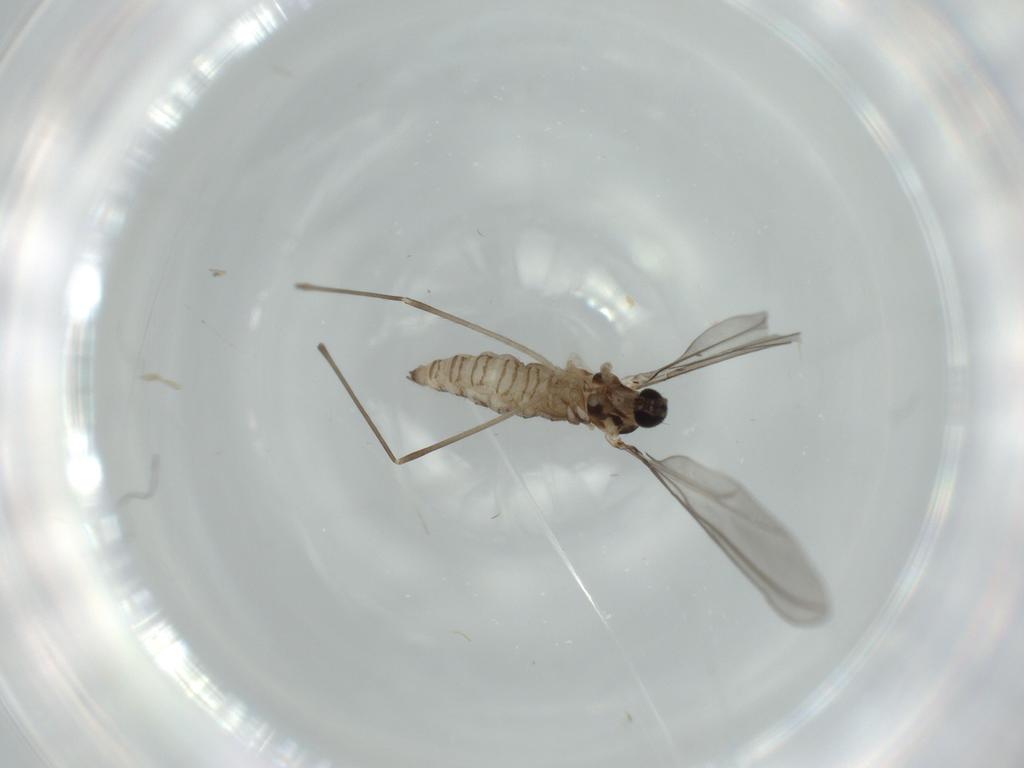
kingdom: Animalia
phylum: Arthropoda
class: Insecta
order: Diptera
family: Cecidomyiidae
